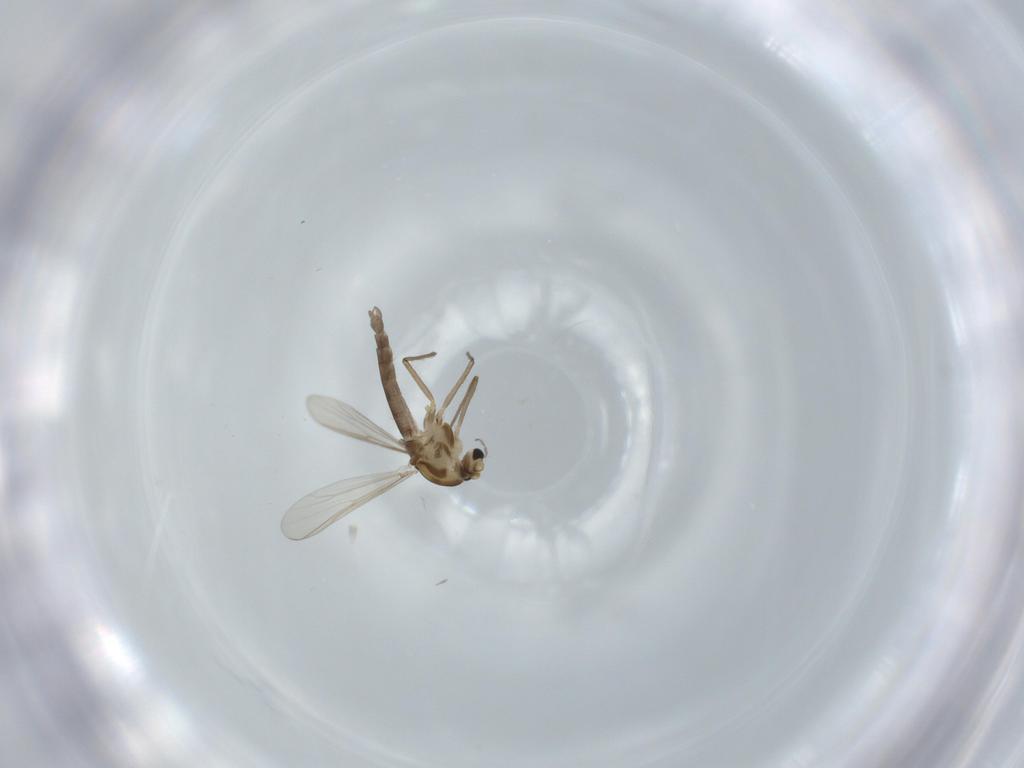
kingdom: Animalia
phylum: Arthropoda
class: Insecta
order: Diptera
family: Chironomidae
